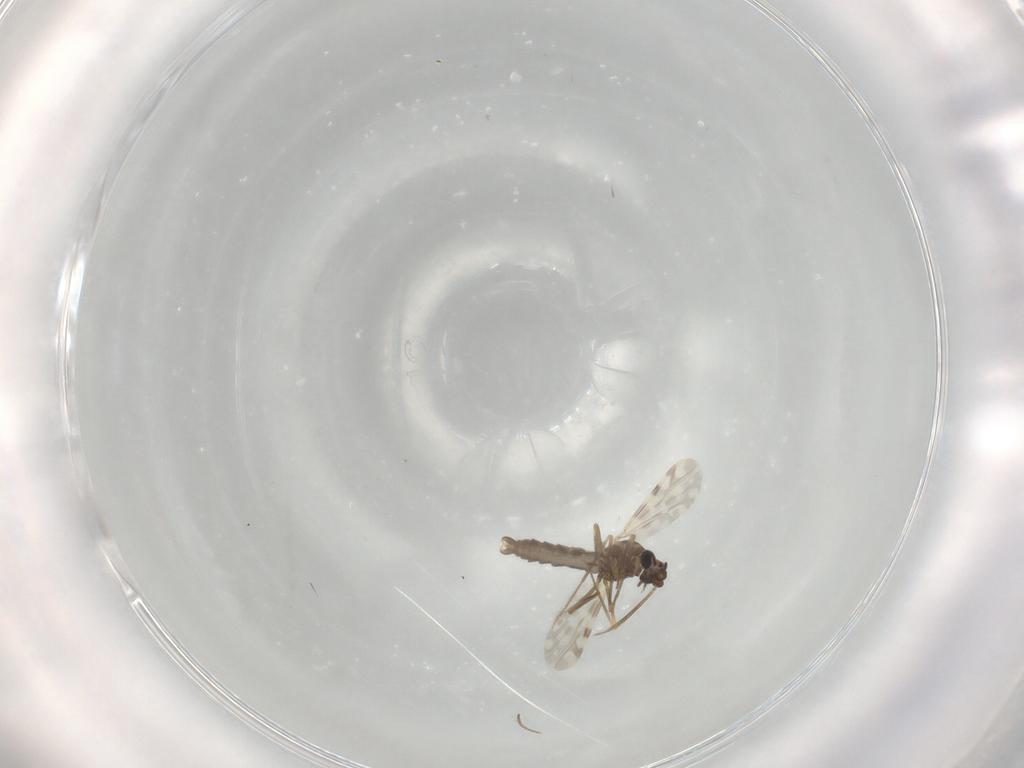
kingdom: Animalia
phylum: Arthropoda
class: Insecta
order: Diptera
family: Ceratopogonidae
